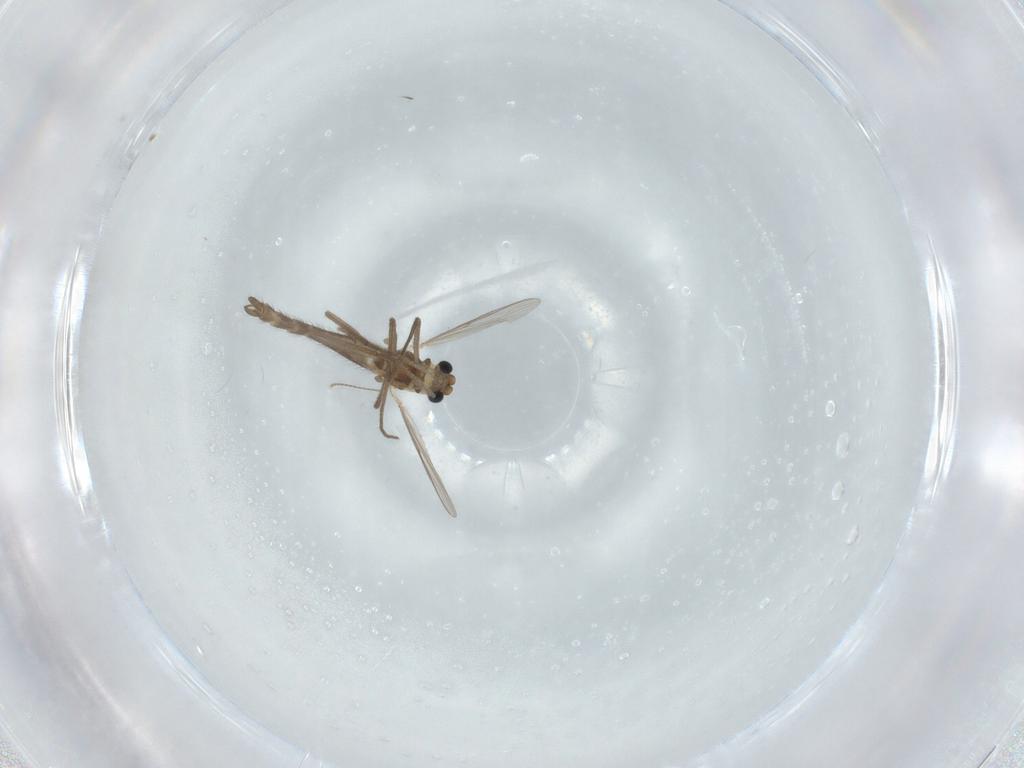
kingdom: Animalia
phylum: Arthropoda
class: Insecta
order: Diptera
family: Chironomidae
